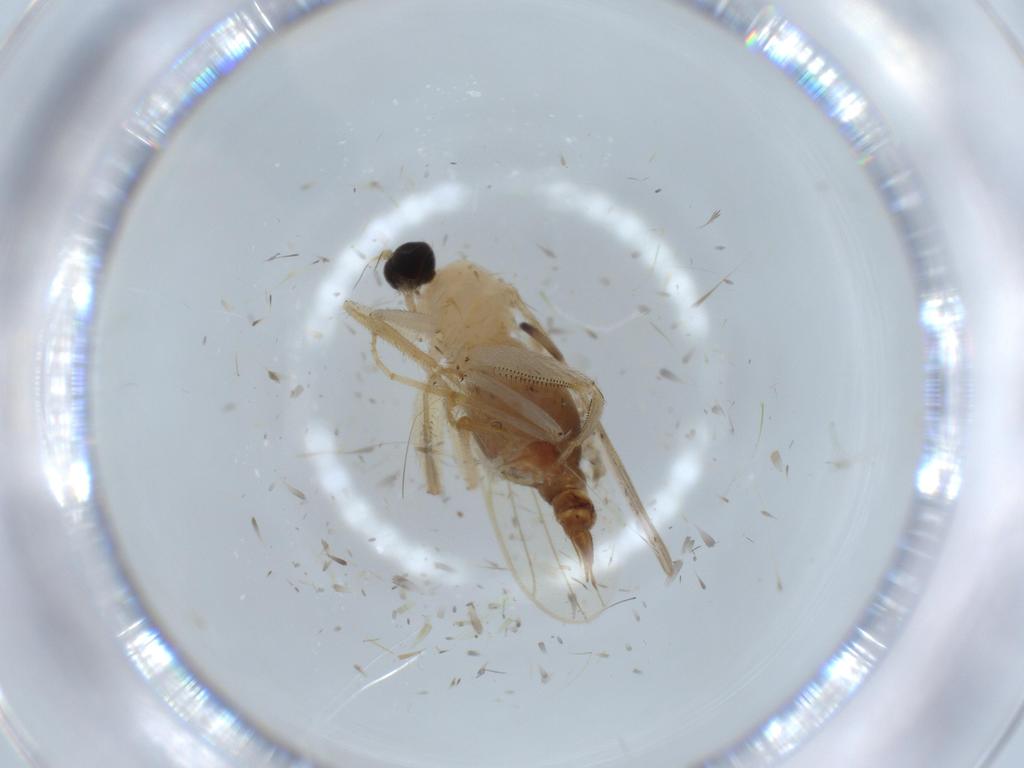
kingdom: Animalia
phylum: Arthropoda
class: Insecta
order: Diptera
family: Hybotidae
